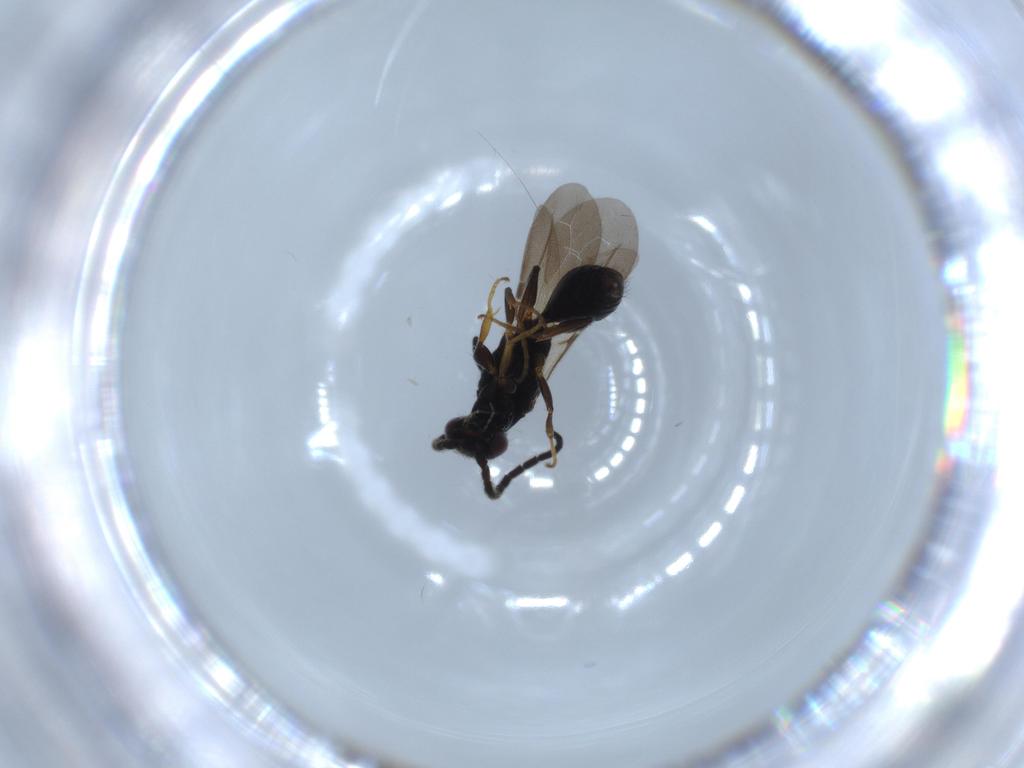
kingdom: Animalia
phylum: Arthropoda
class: Insecta
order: Hymenoptera
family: Bethylidae
